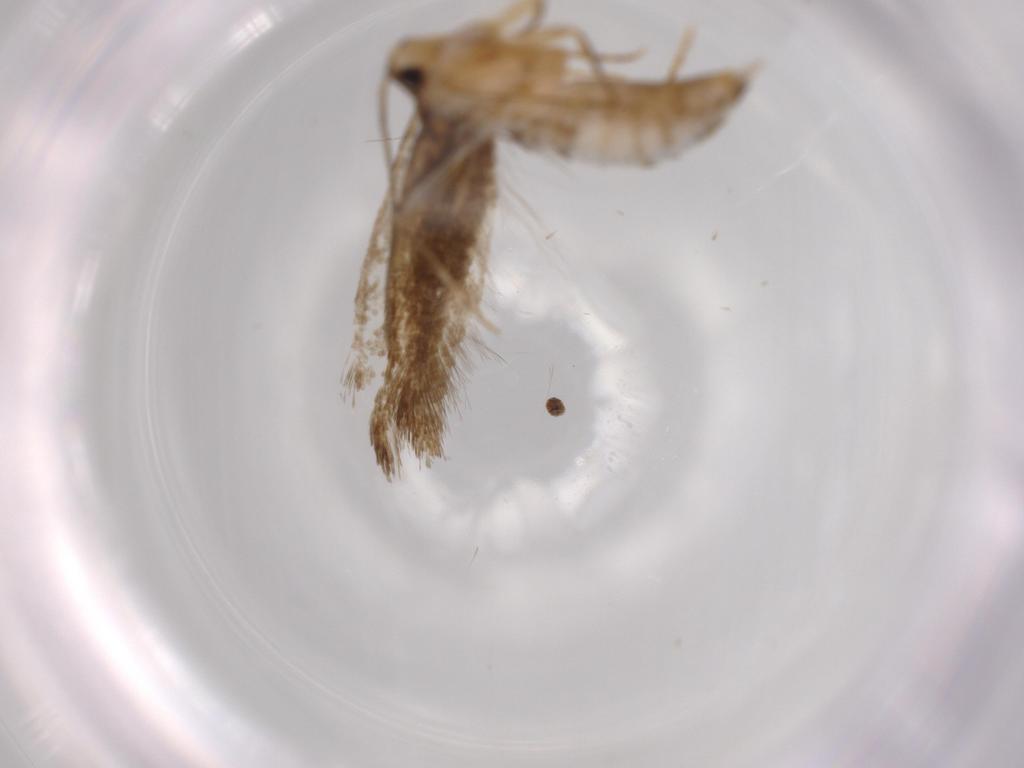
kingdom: Animalia
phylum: Arthropoda
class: Insecta
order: Lepidoptera
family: Tineidae
